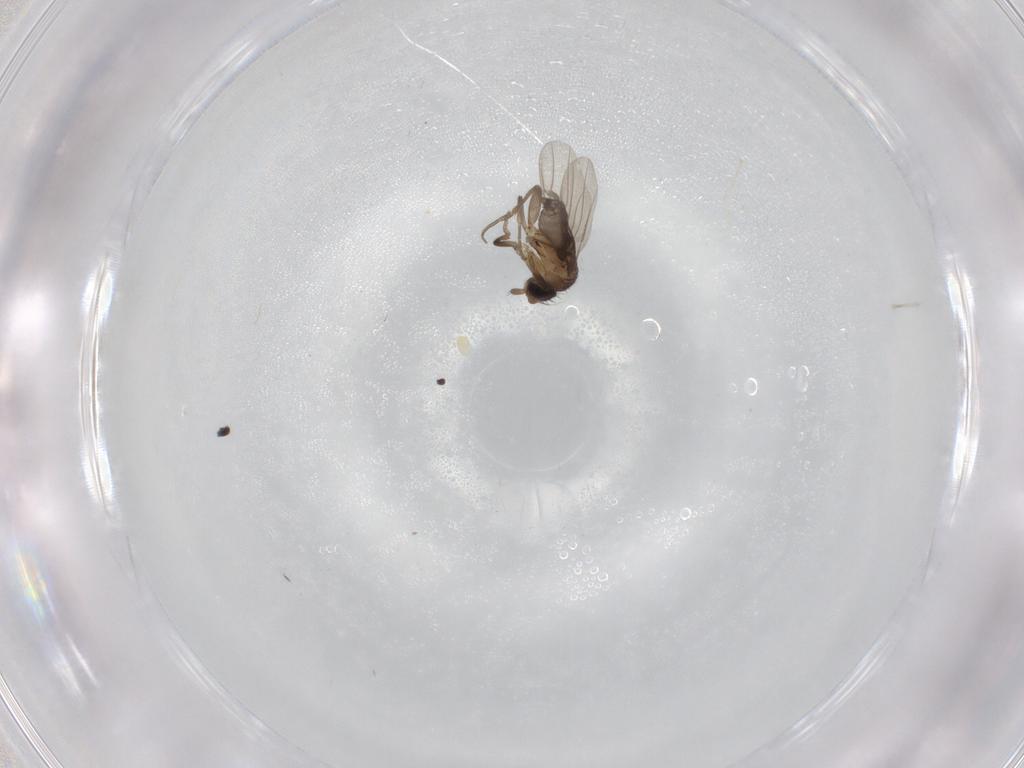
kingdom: Animalia
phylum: Arthropoda
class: Insecta
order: Diptera
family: Phoridae
